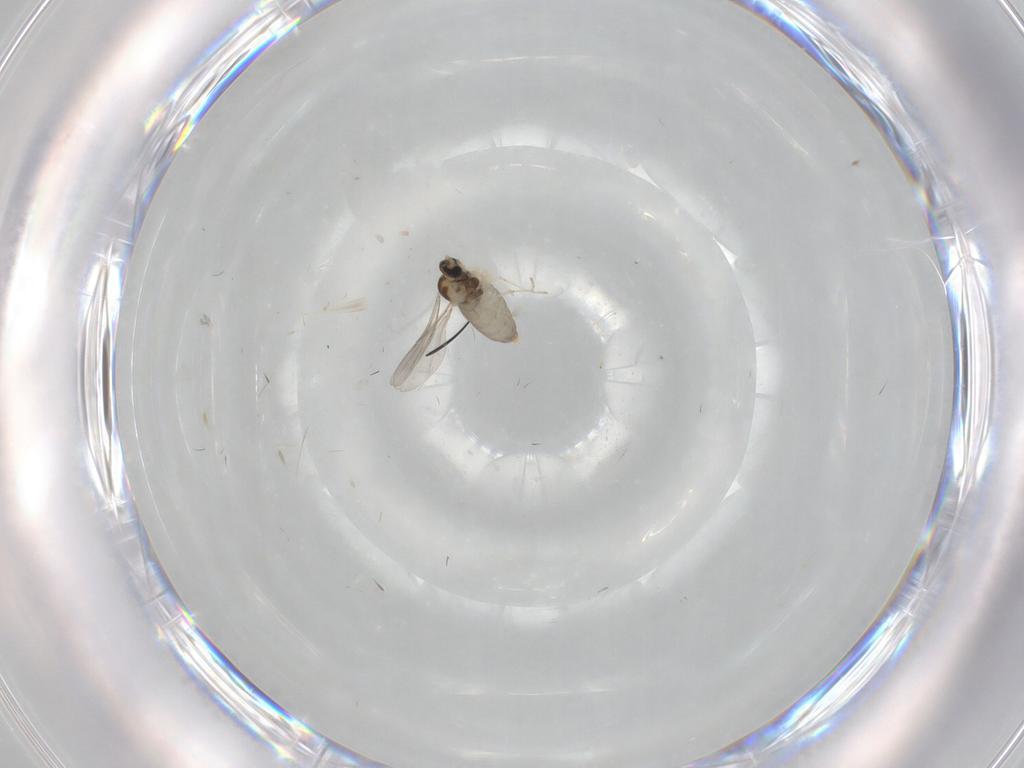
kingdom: Animalia
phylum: Arthropoda
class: Insecta
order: Diptera
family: Cecidomyiidae
